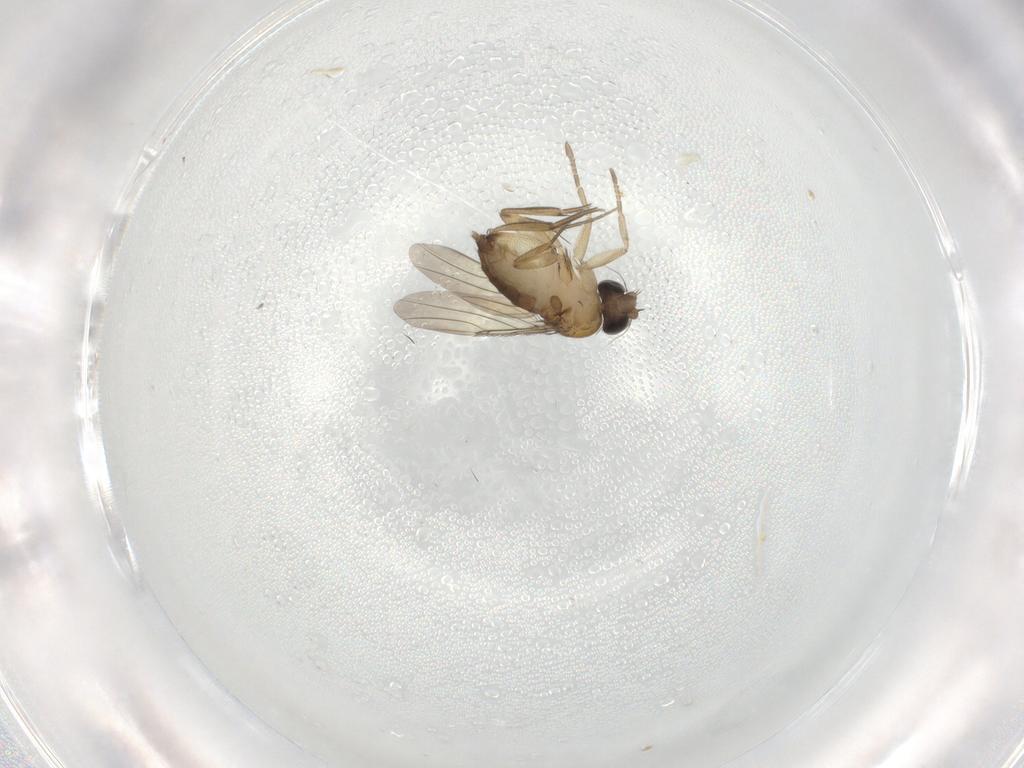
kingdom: Animalia
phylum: Arthropoda
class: Insecta
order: Diptera
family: Phoridae
